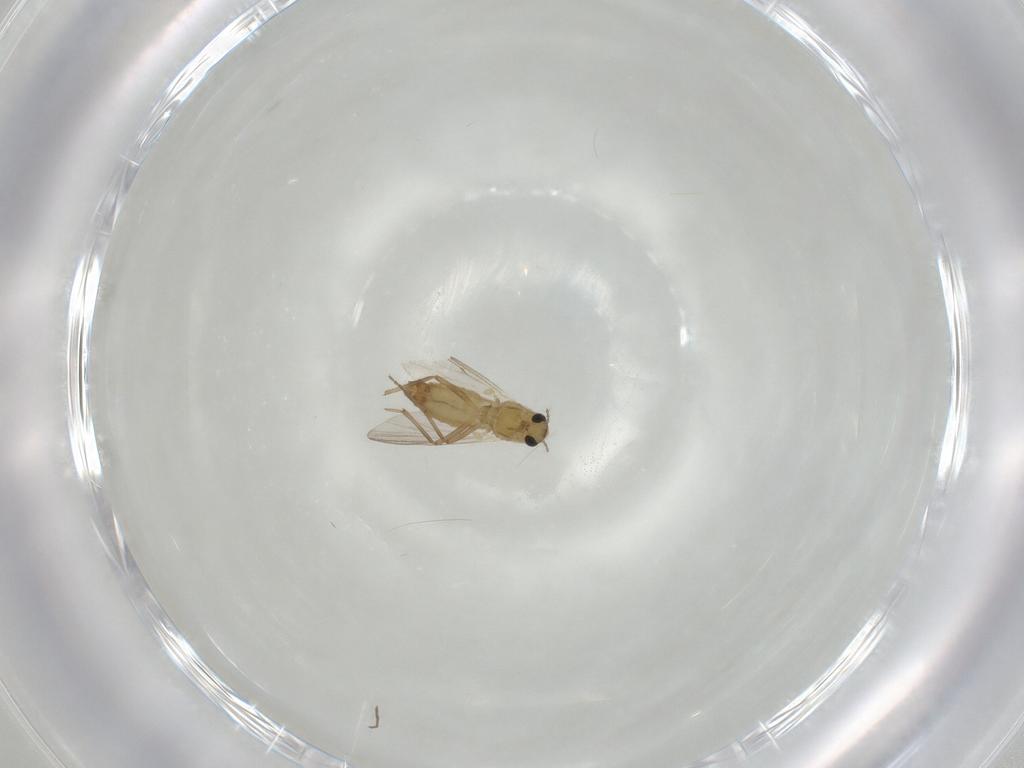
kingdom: Animalia
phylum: Arthropoda
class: Insecta
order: Diptera
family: Chironomidae
